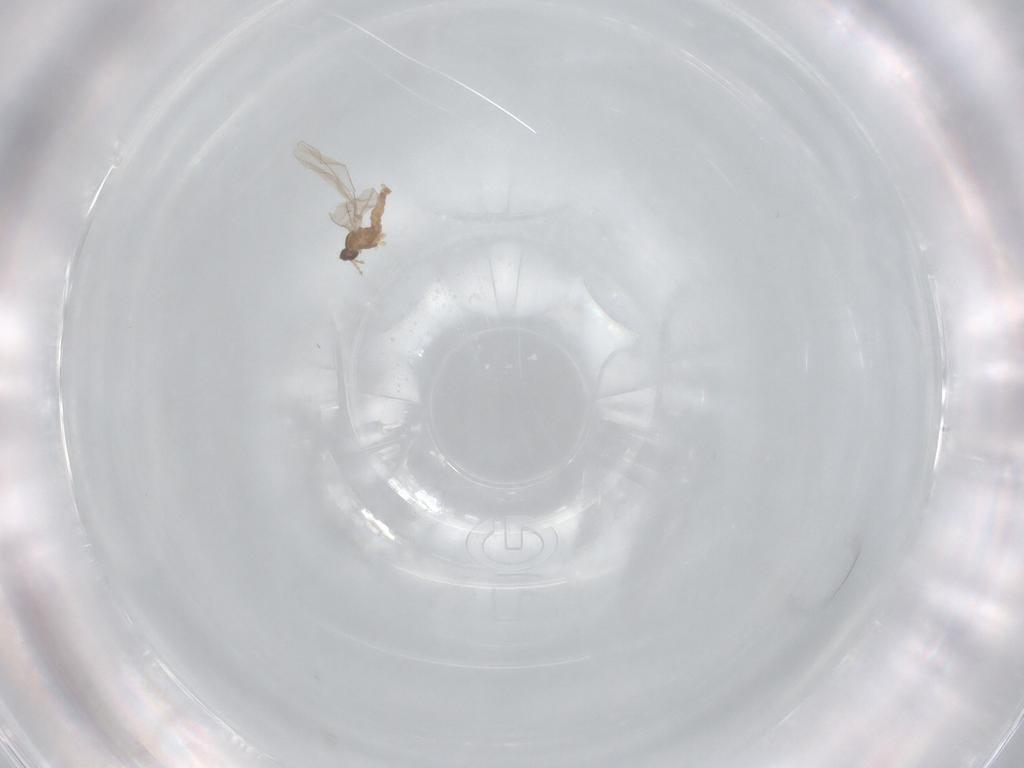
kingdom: Animalia
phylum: Arthropoda
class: Insecta
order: Diptera
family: Cecidomyiidae
